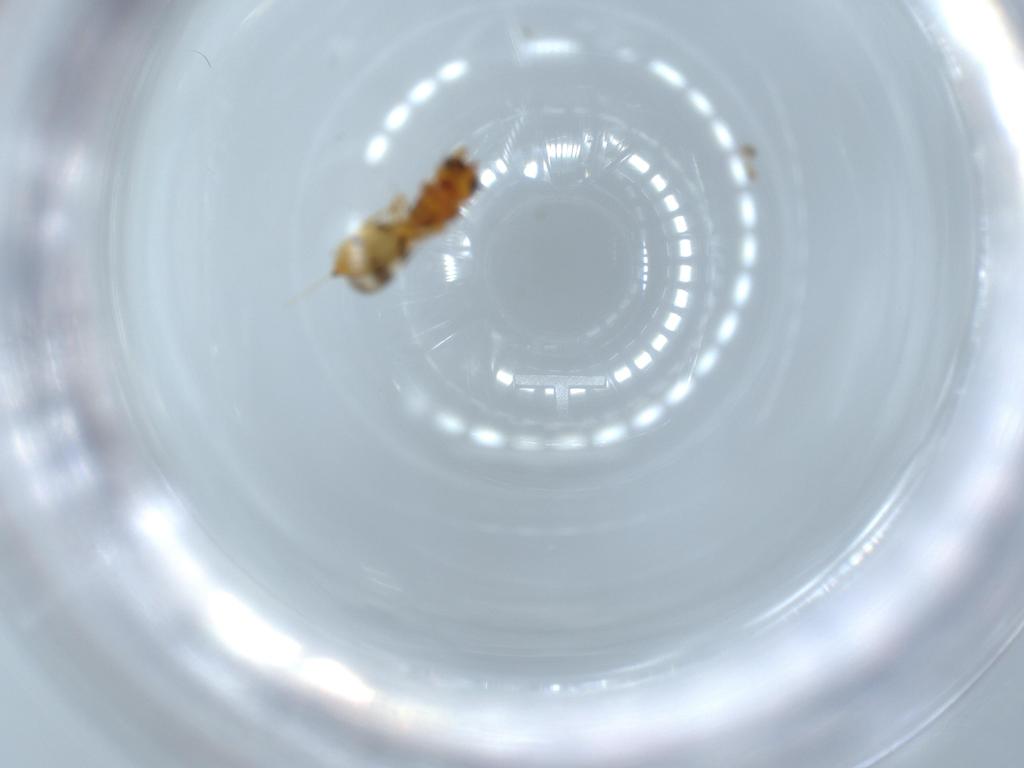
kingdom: Animalia
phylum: Arthropoda
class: Insecta
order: Hymenoptera
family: Scelionidae
